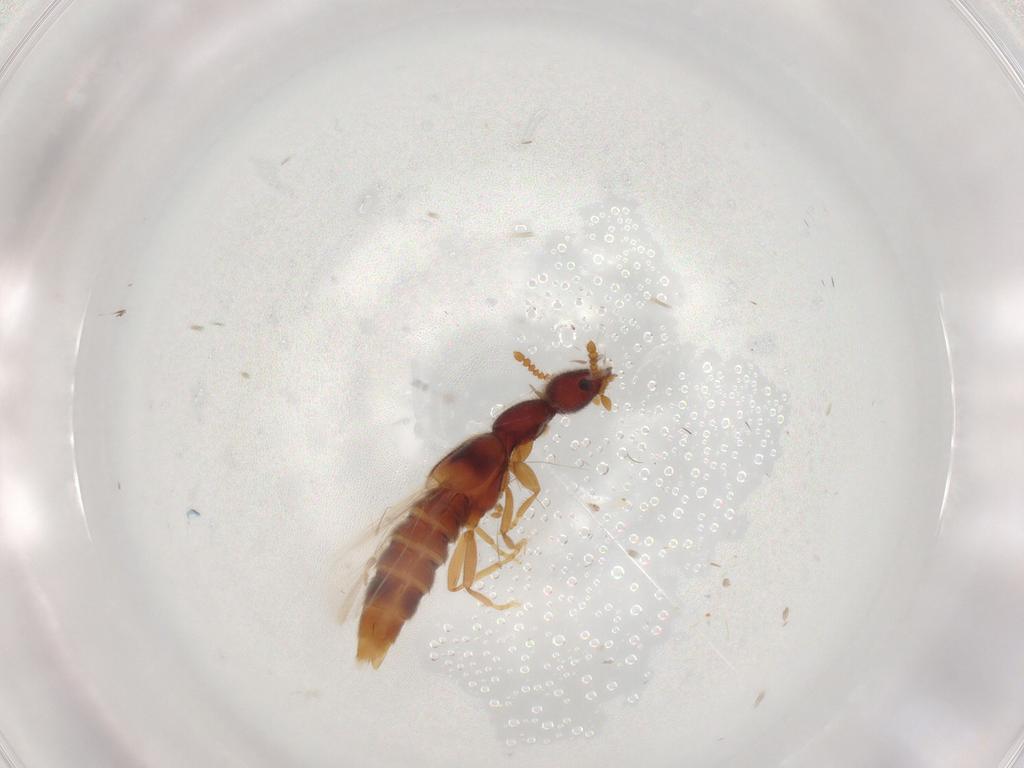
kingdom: Animalia
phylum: Arthropoda
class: Insecta
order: Coleoptera
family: Staphylinidae
